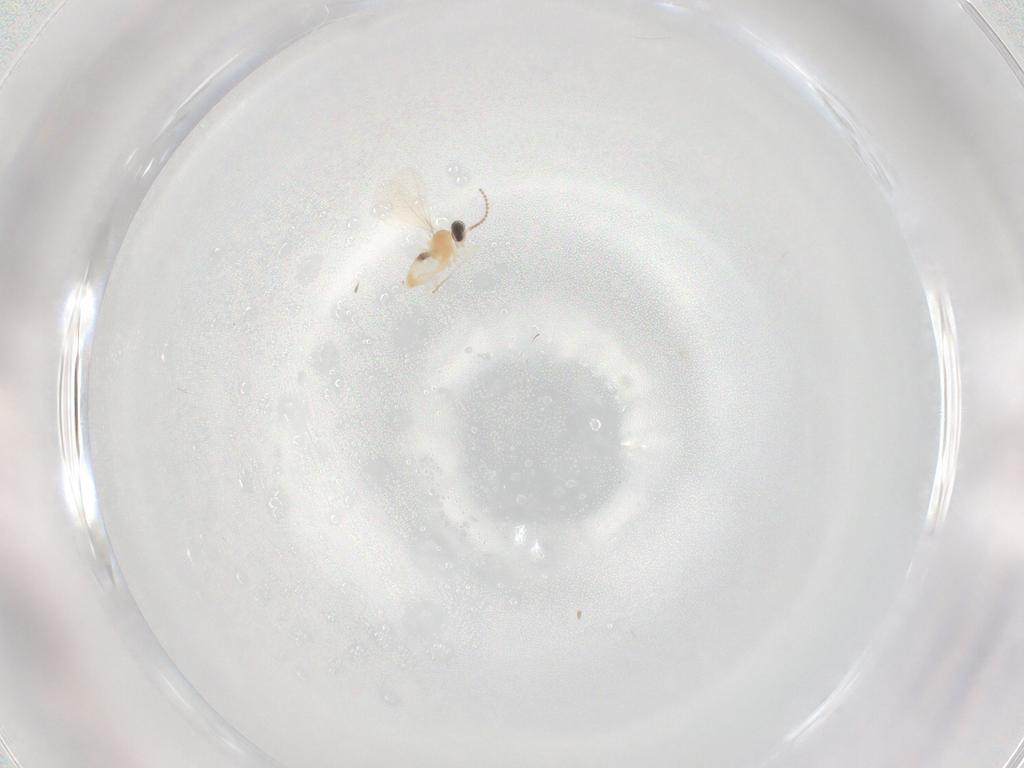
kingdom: Animalia
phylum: Arthropoda
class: Insecta
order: Diptera
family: Cecidomyiidae
